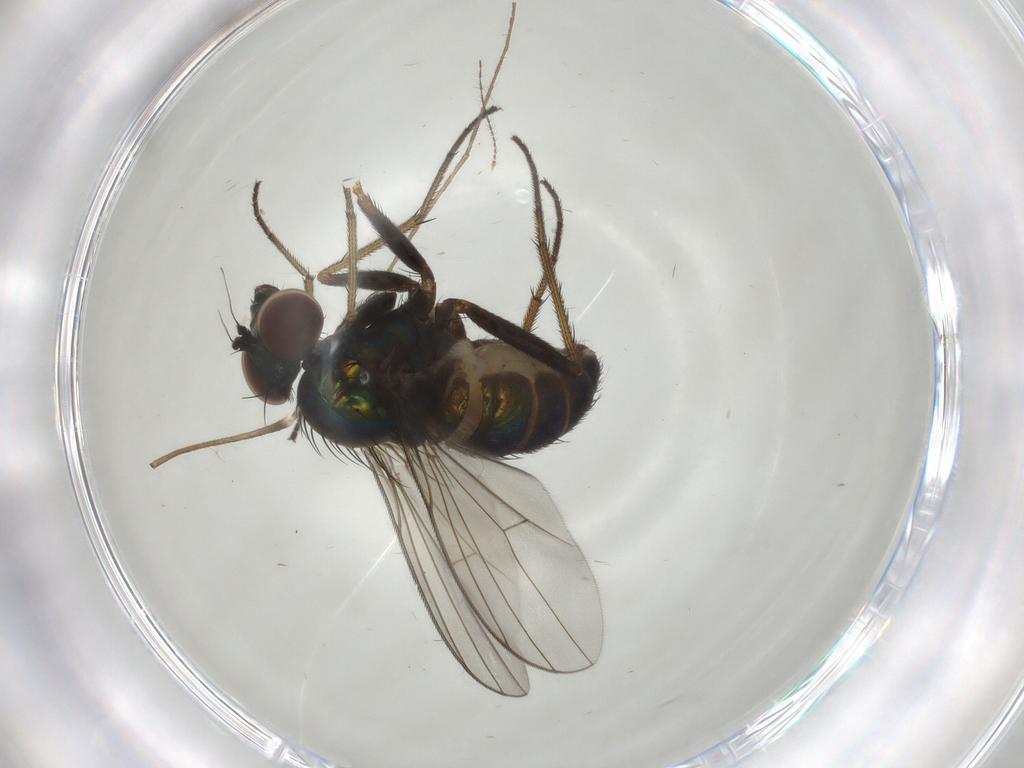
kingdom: Animalia
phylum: Arthropoda
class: Insecta
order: Diptera
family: Dolichopodidae
